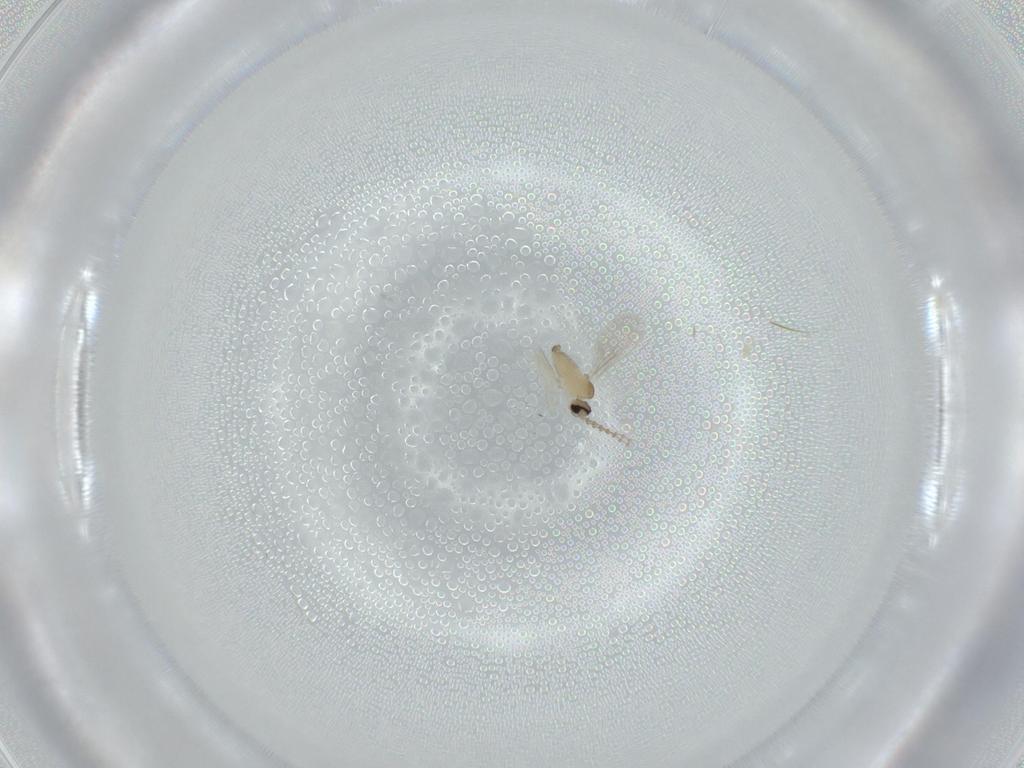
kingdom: Animalia
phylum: Arthropoda
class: Insecta
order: Diptera
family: Cecidomyiidae
